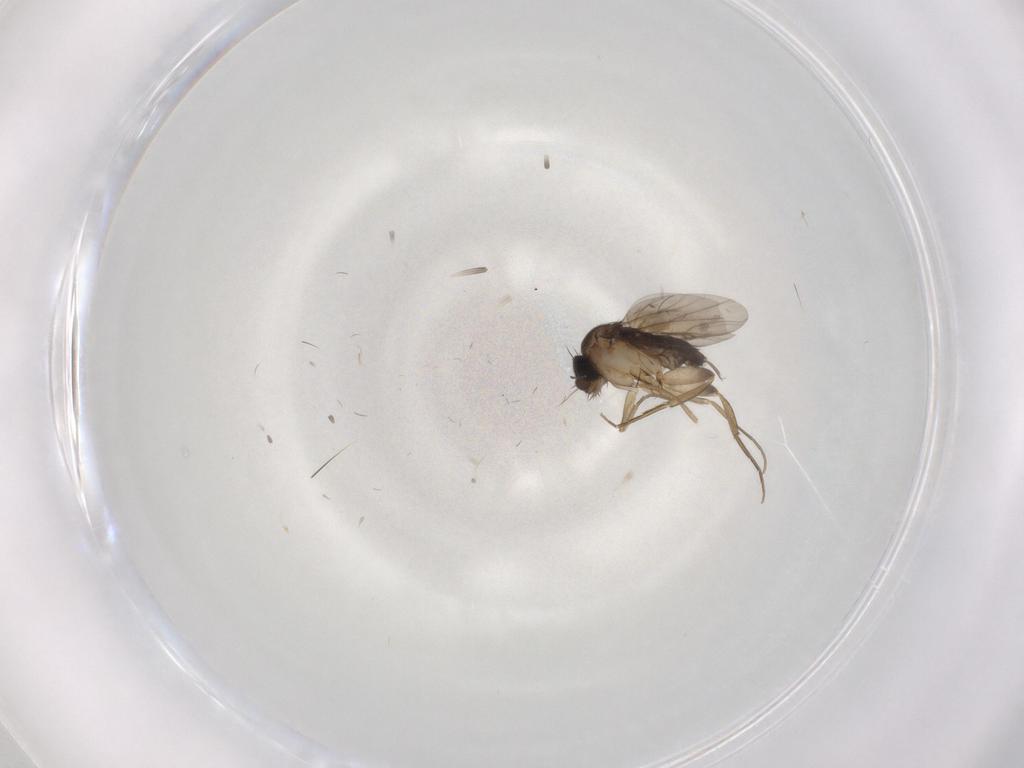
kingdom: Animalia
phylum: Arthropoda
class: Insecta
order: Diptera
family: Phoridae
